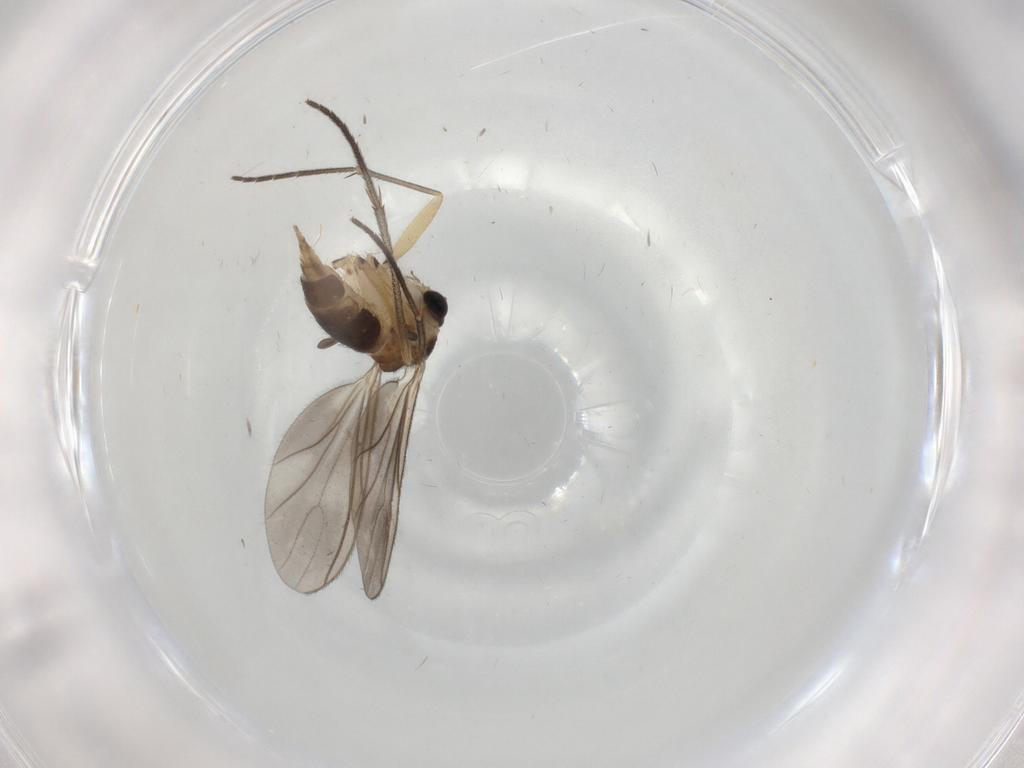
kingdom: Animalia
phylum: Arthropoda
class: Insecta
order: Diptera
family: Sciaridae
